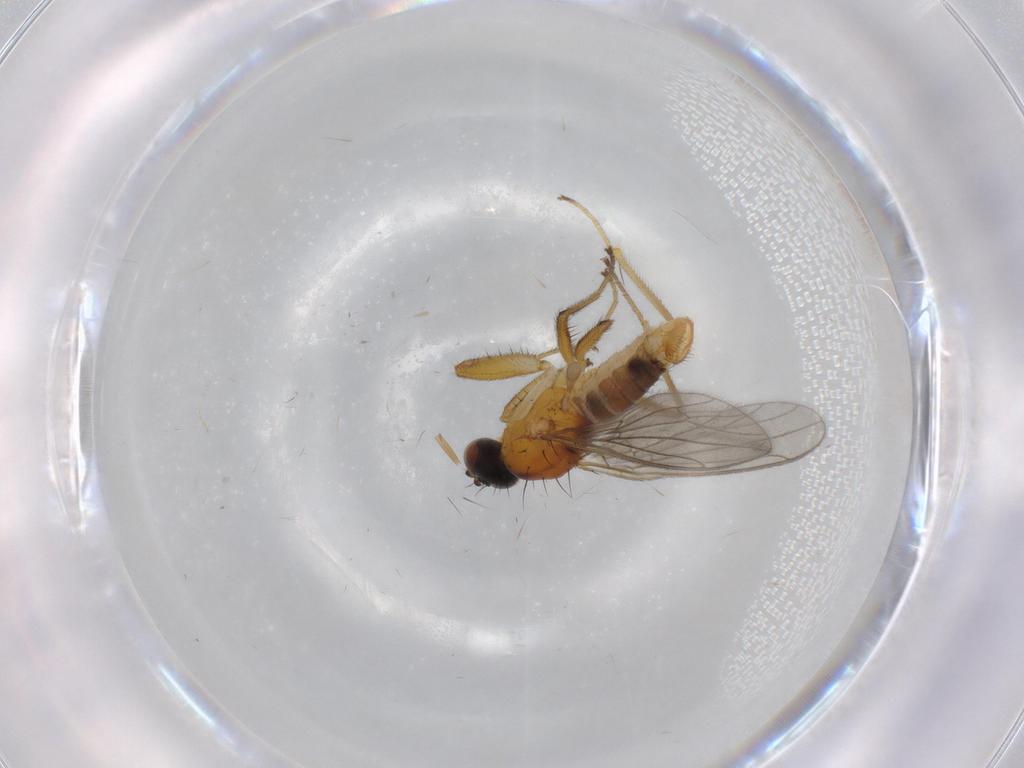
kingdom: Animalia
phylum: Arthropoda
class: Insecta
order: Diptera
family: Empididae
